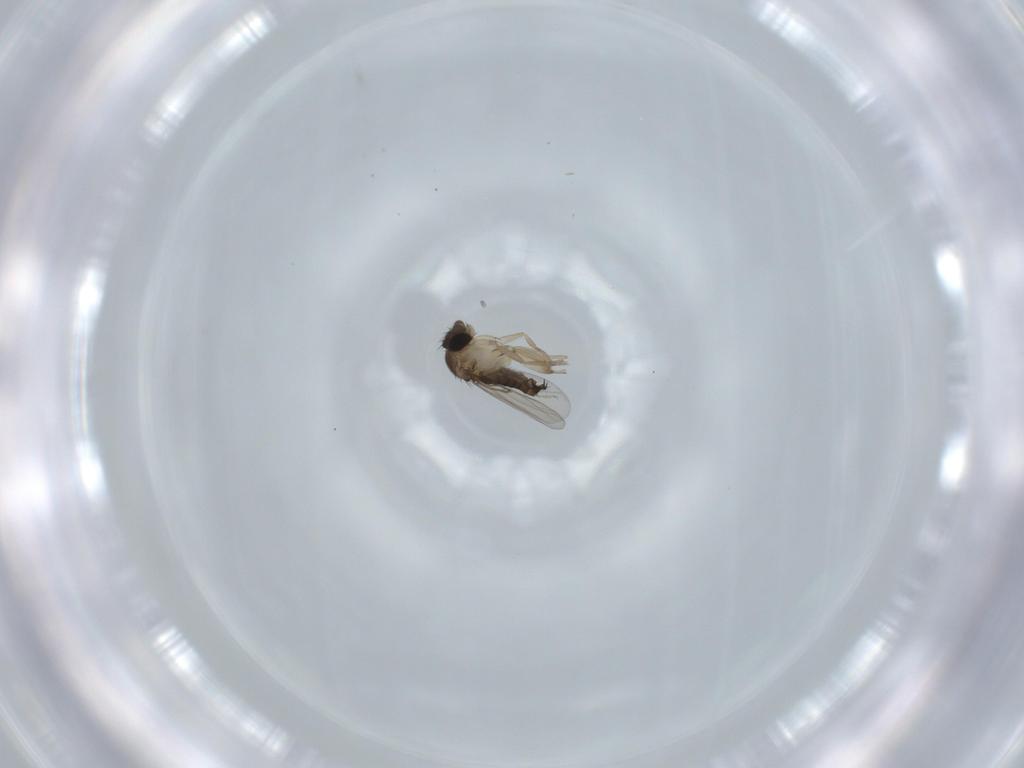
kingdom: Animalia
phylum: Arthropoda
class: Insecta
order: Diptera
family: Phoridae
